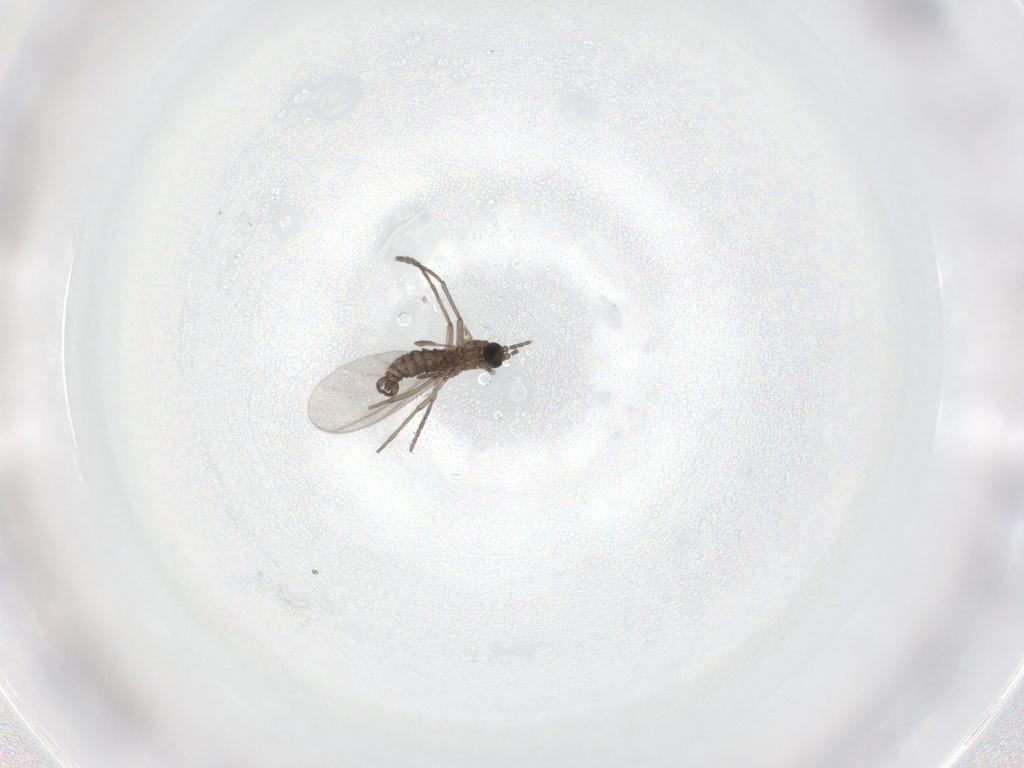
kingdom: Animalia
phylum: Arthropoda
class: Insecta
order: Diptera
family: Sciaridae
